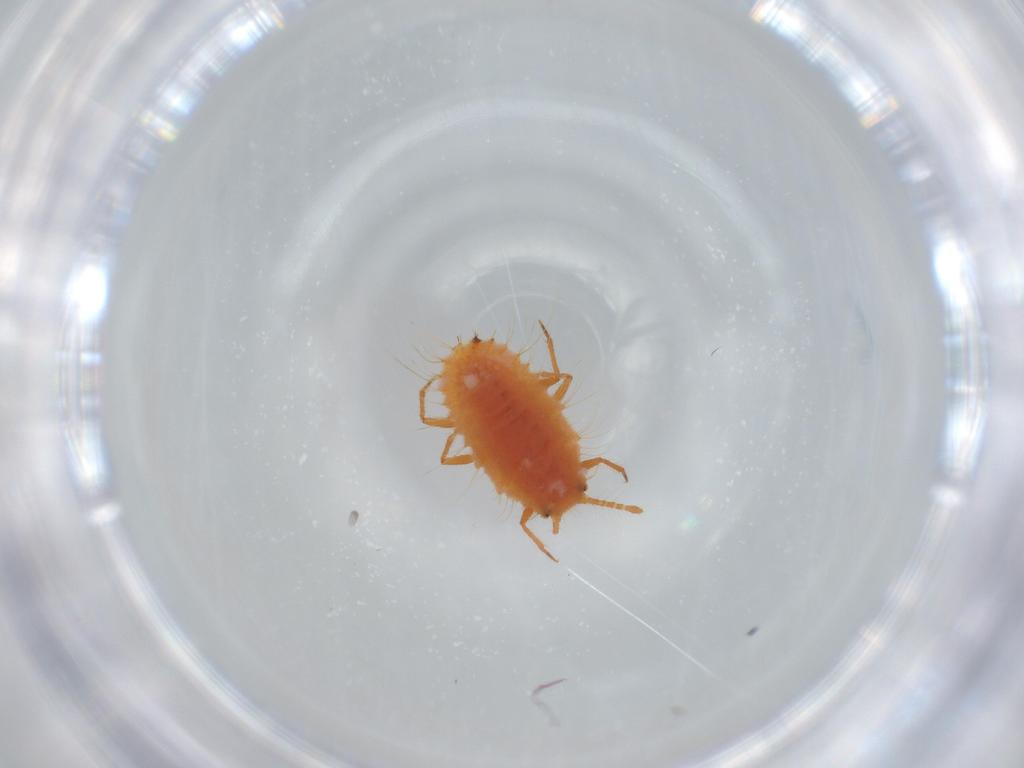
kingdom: Animalia
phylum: Arthropoda
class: Insecta
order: Hemiptera
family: Coccoidea_incertae_sedis
